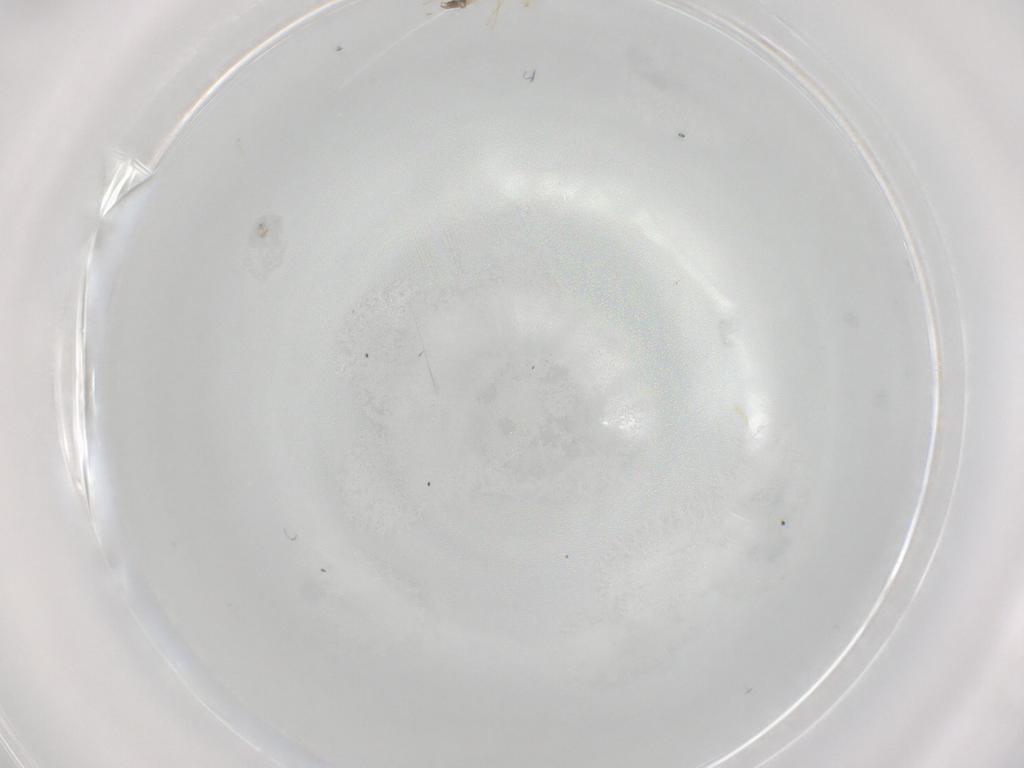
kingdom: Animalia
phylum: Arthropoda
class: Insecta
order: Diptera
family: Chironomidae
